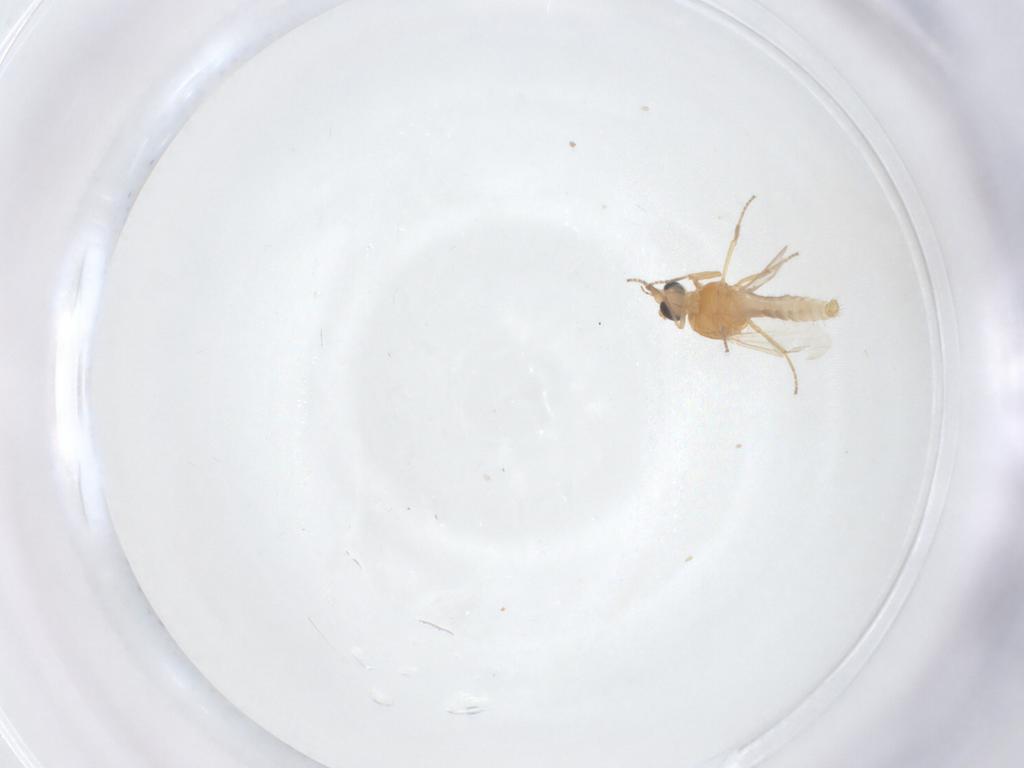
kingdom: Animalia
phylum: Arthropoda
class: Insecta
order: Diptera
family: Ceratopogonidae
